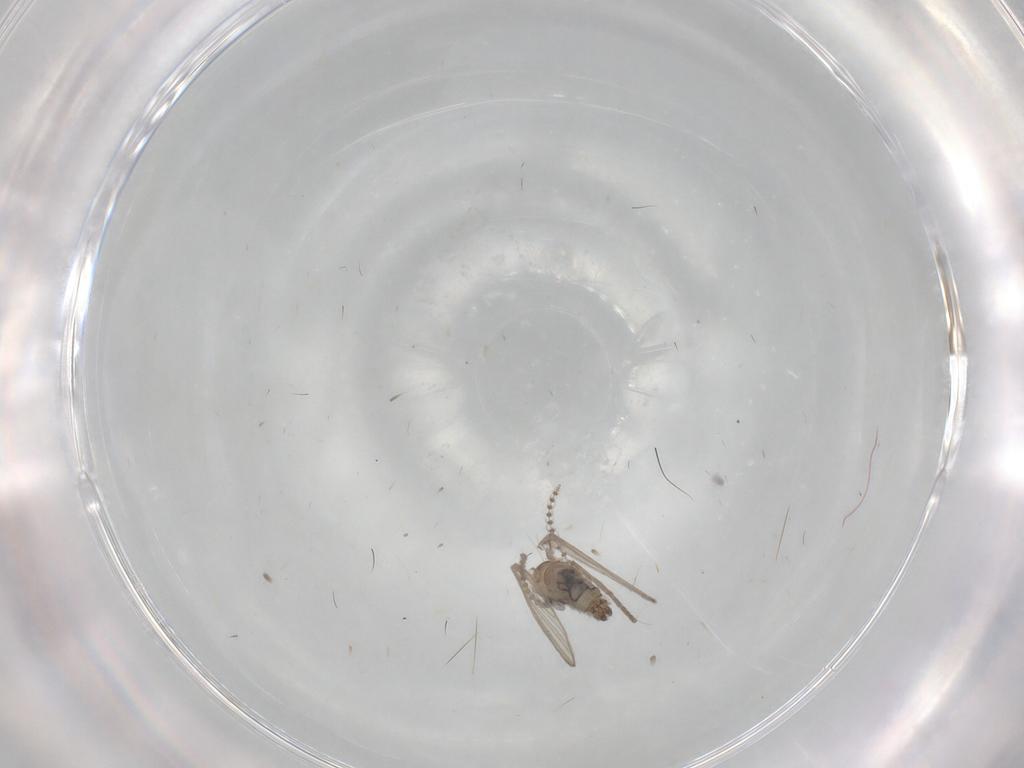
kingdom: Animalia
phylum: Arthropoda
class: Insecta
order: Diptera
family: Psychodidae
